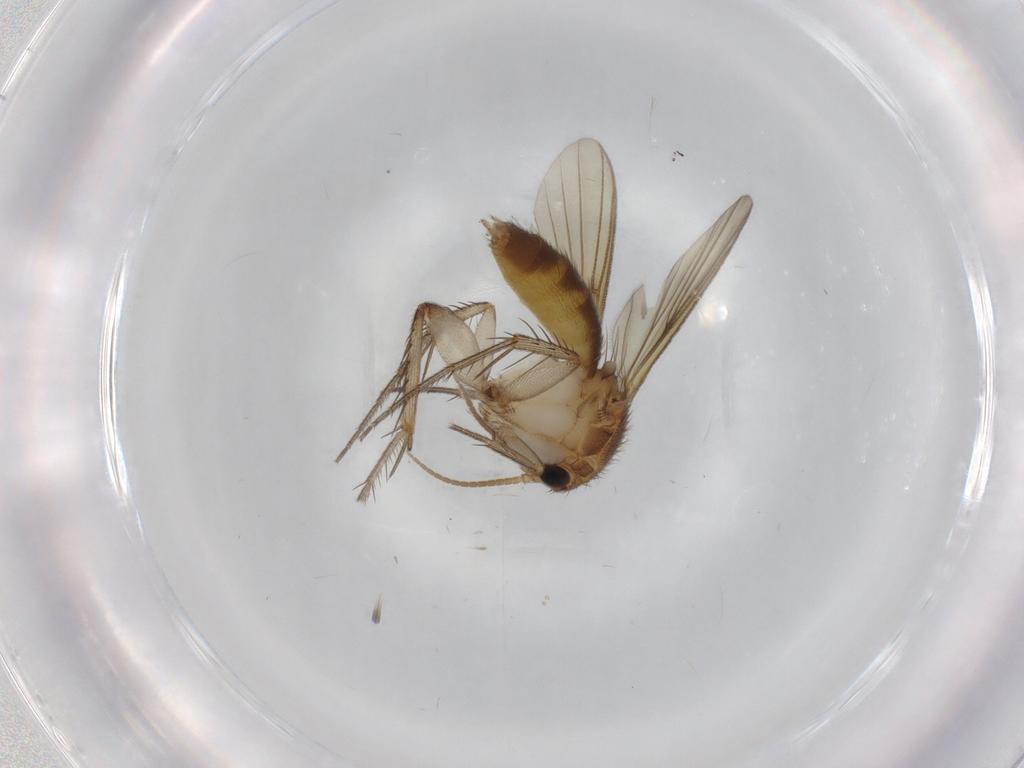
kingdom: Animalia
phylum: Arthropoda
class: Insecta
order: Diptera
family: Mycetophilidae
